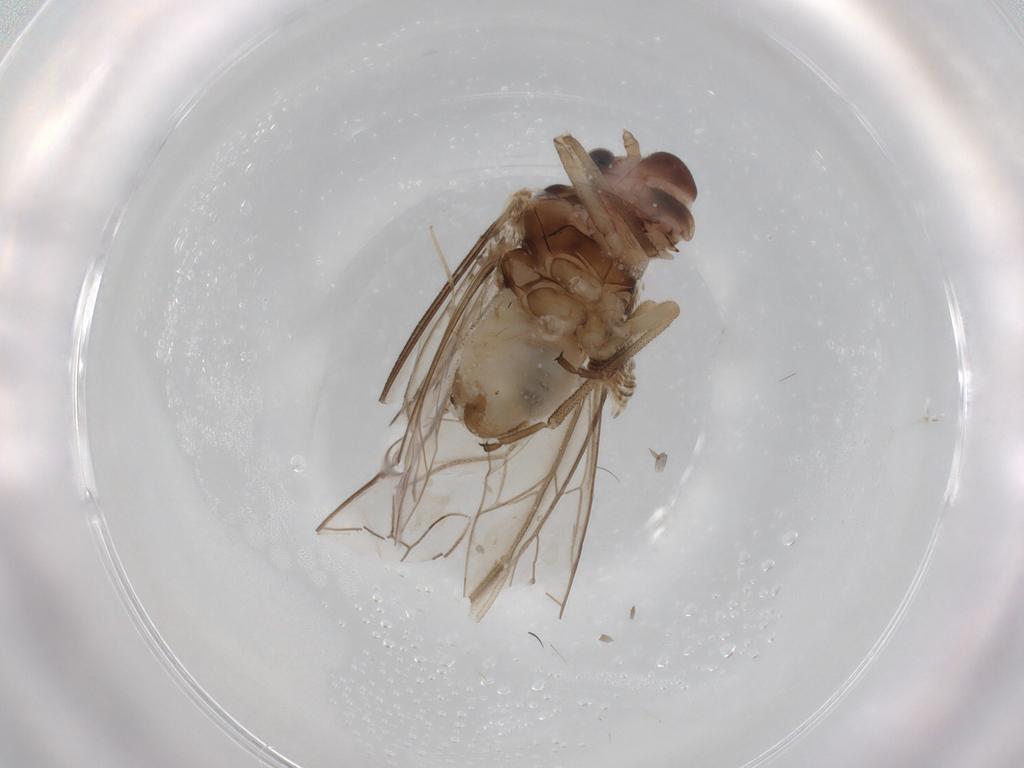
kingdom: Animalia
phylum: Arthropoda
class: Insecta
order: Psocodea
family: Stenopsocidae
